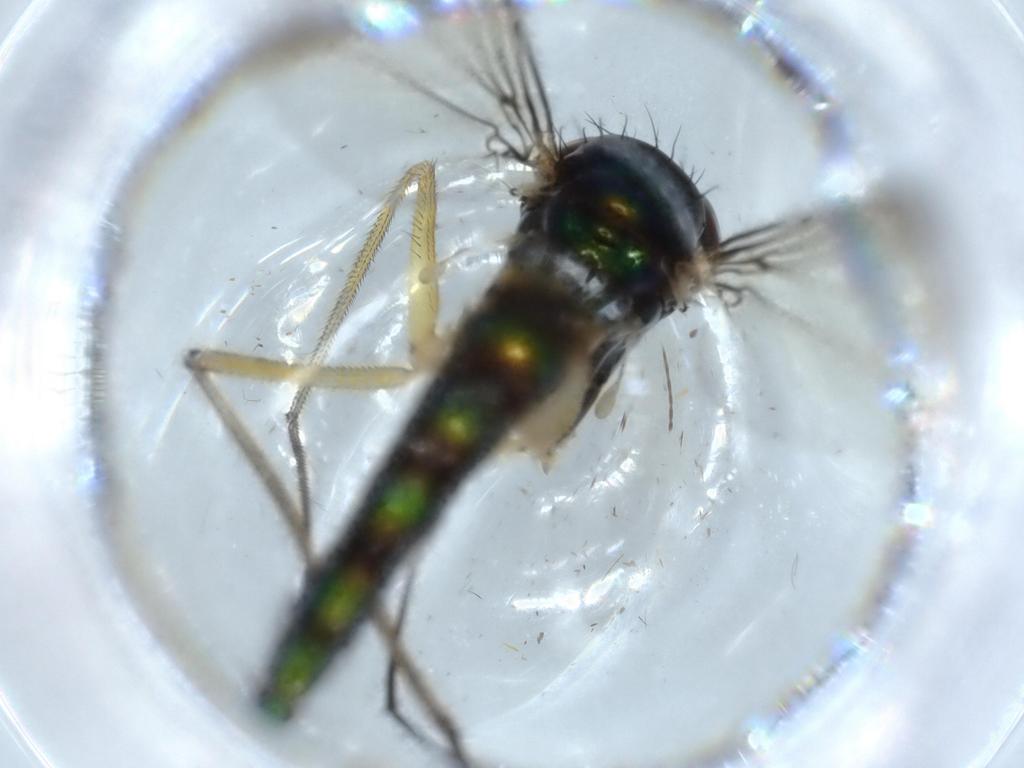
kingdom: Animalia
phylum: Arthropoda
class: Insecta
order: Diptera
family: Dolichopodidae
